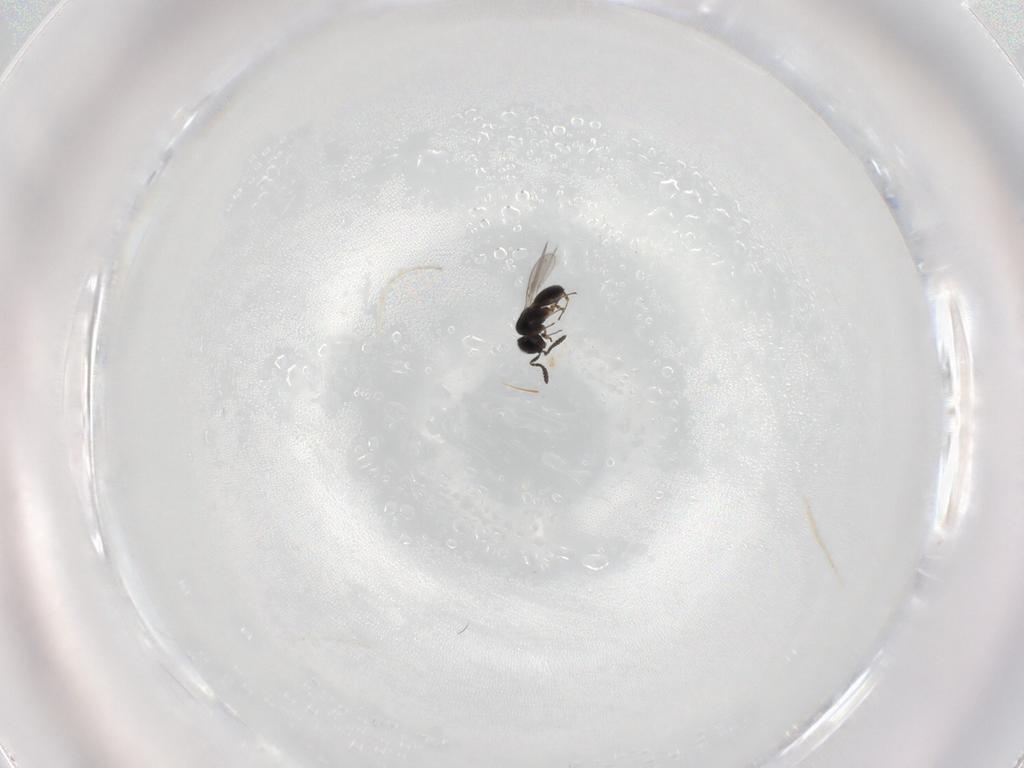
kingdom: Animalia
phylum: Arthropoda
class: Insecta
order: Hymenoptera
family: Scelionidae
